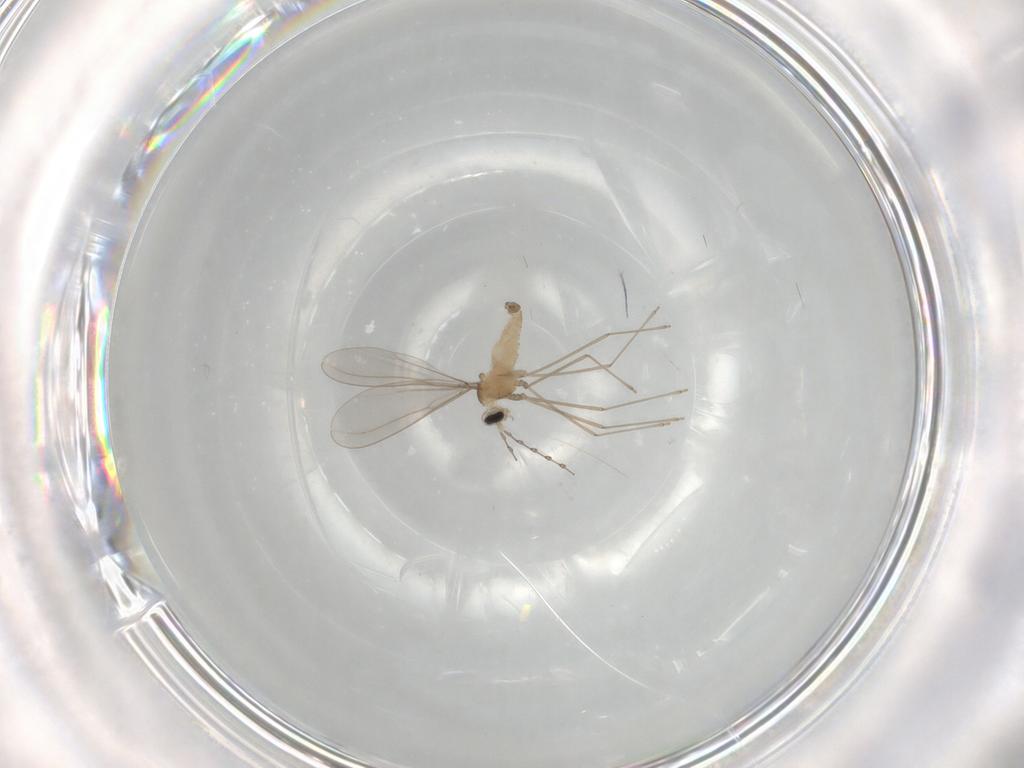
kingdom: Animalia
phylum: Arthropoda
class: Insecta
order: Diptera
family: Cecidomyiidae
